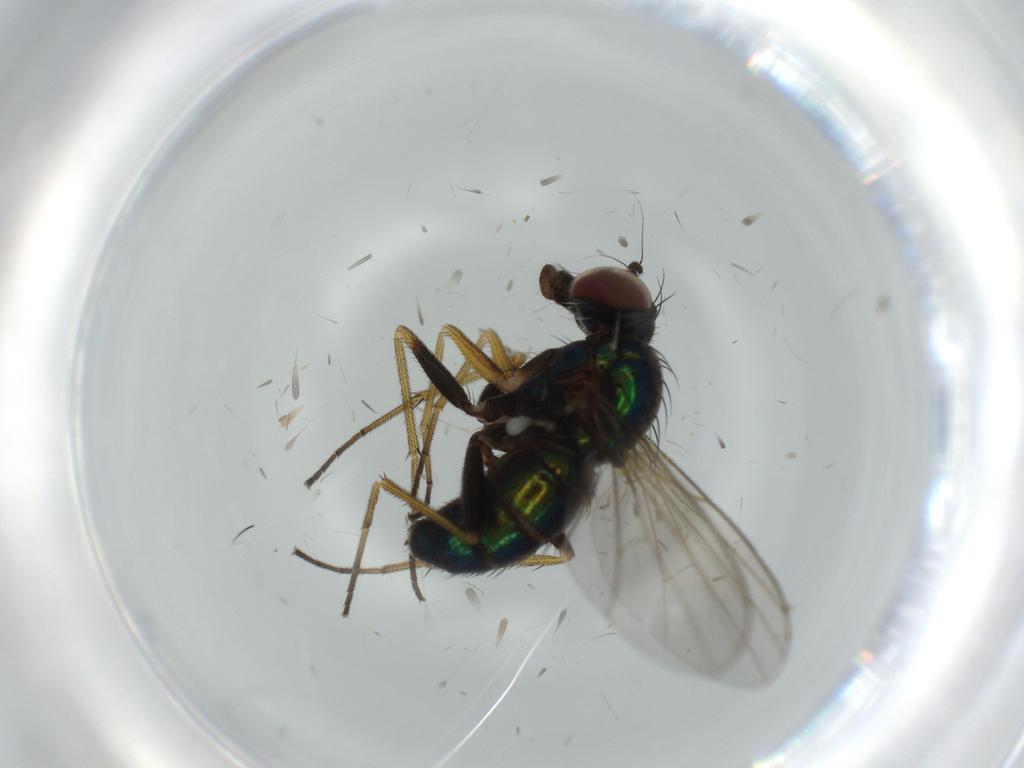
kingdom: Animalia
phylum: Arthropoda
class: Insecta
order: Diptera
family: Dolichopodidae
